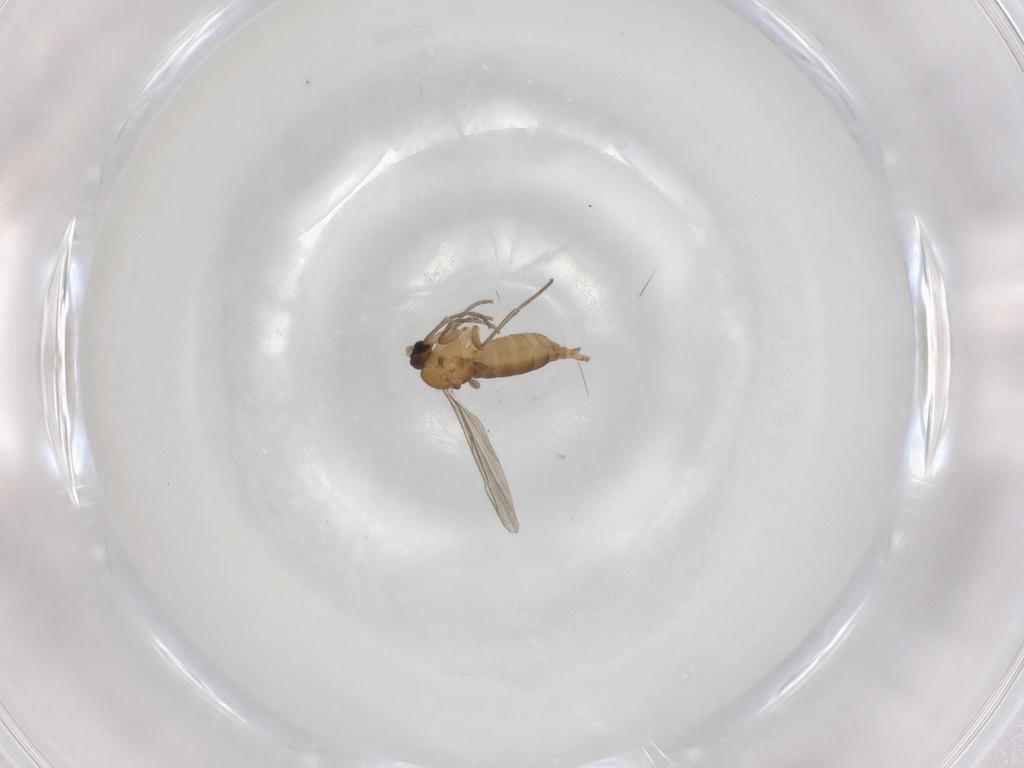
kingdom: Animalia
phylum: Arthropoda
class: Insecta
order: Diptera
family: Sciaridae
